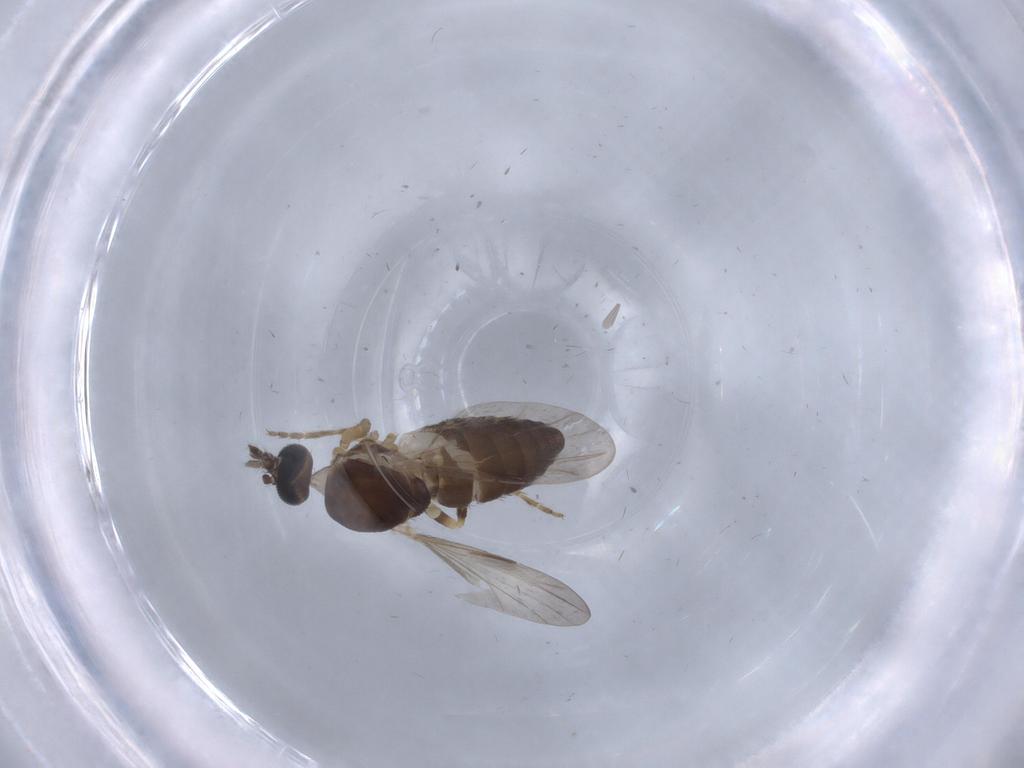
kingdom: Animalia
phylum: Arthropoda
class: Insecta
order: Diptera
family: Ceratopogonidae
